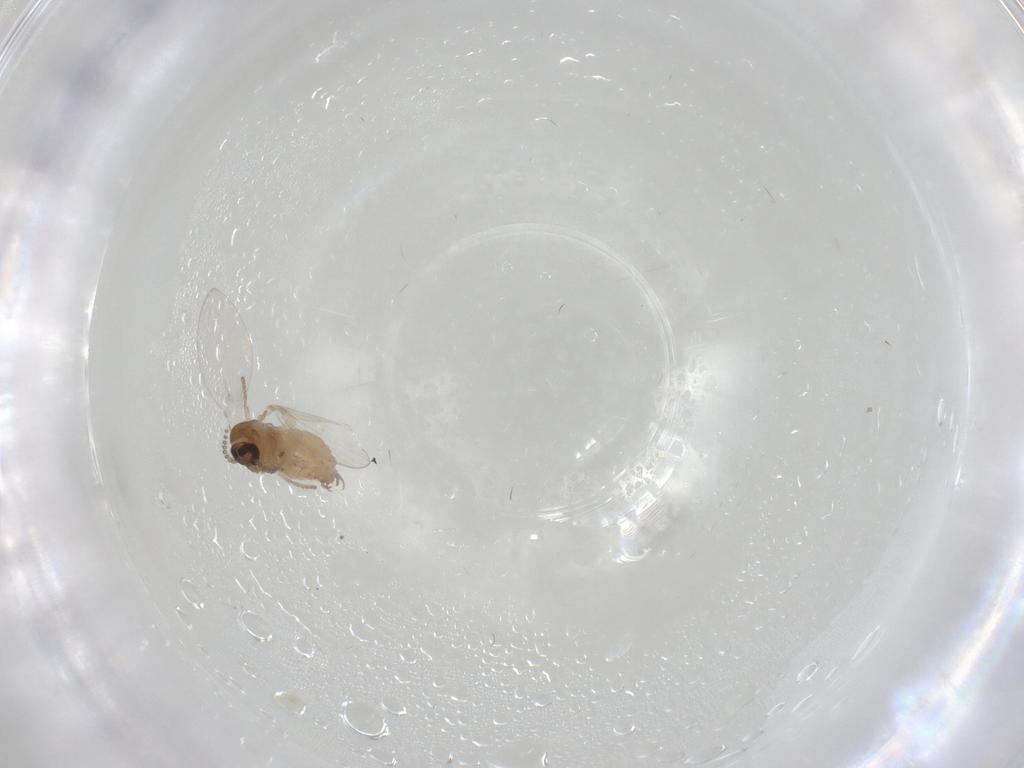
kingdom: Animalia
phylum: Arthropoda
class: Insecta
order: Diptera
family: Psychodidae
